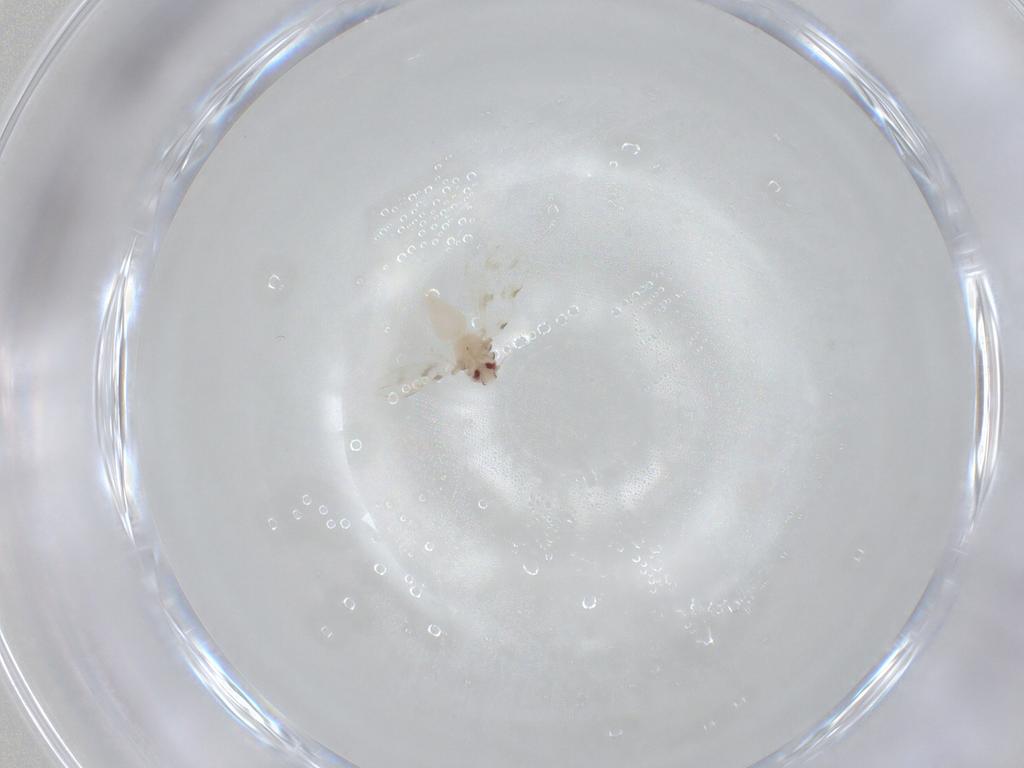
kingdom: Animalia
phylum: Arthropoda
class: Insecta
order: Hemiptera
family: Aleyrodidae
